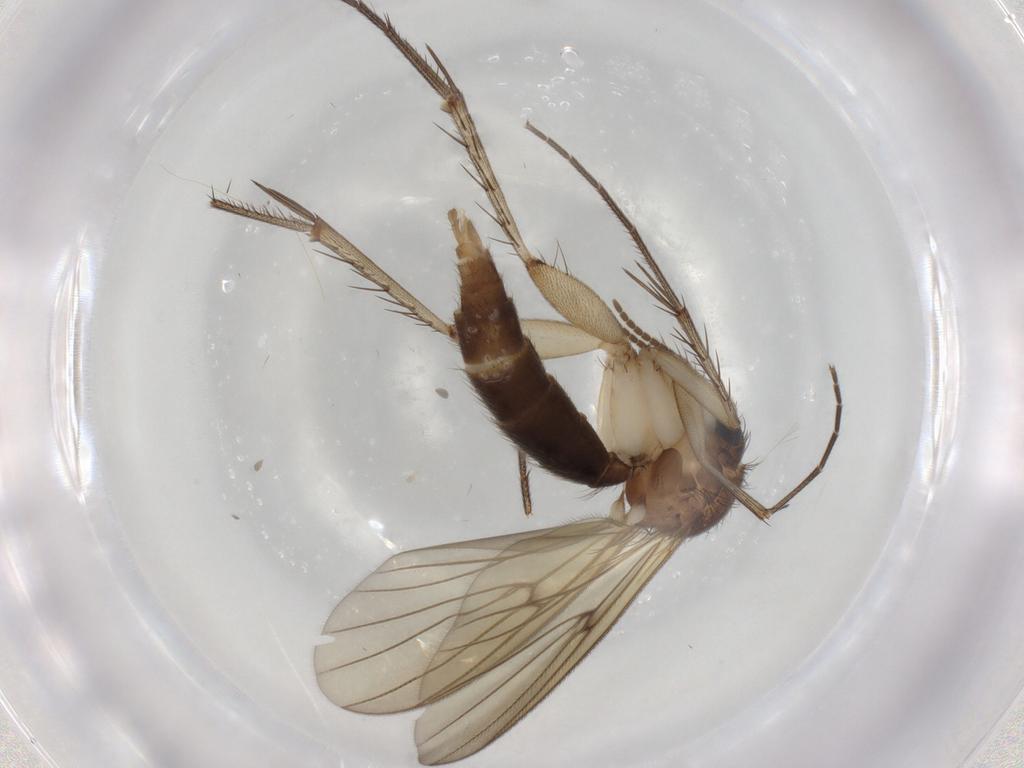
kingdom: Animalia
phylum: Arthropoda
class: Insecta
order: Diptera
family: Mycetophilidae
